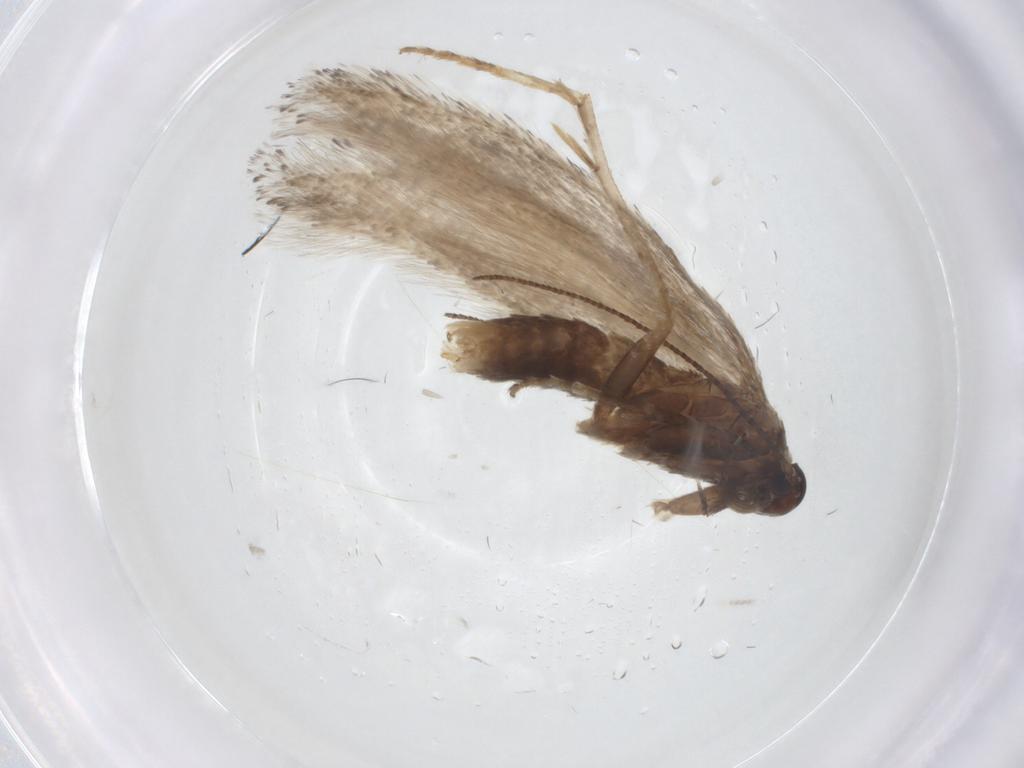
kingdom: Animalia
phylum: Arthropoda
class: Insecta
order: Lepidoptera
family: Gelechiidae
